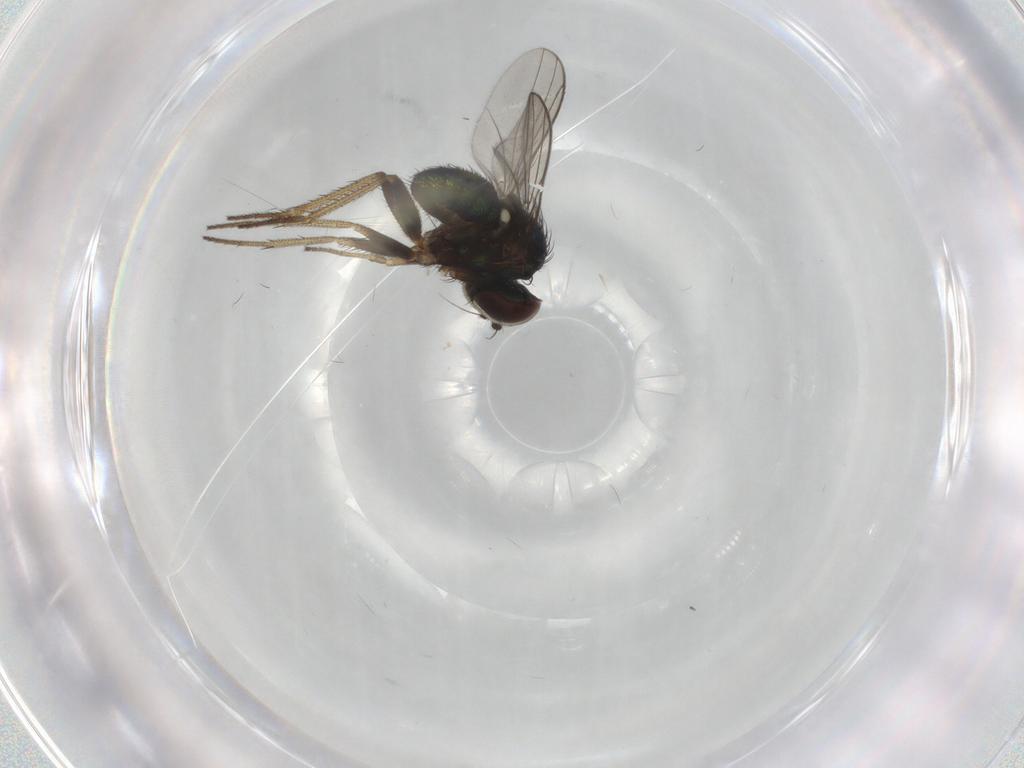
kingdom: Animalia
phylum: Arthropoda
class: Insecta
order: Diptera
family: Dolichopodidae
